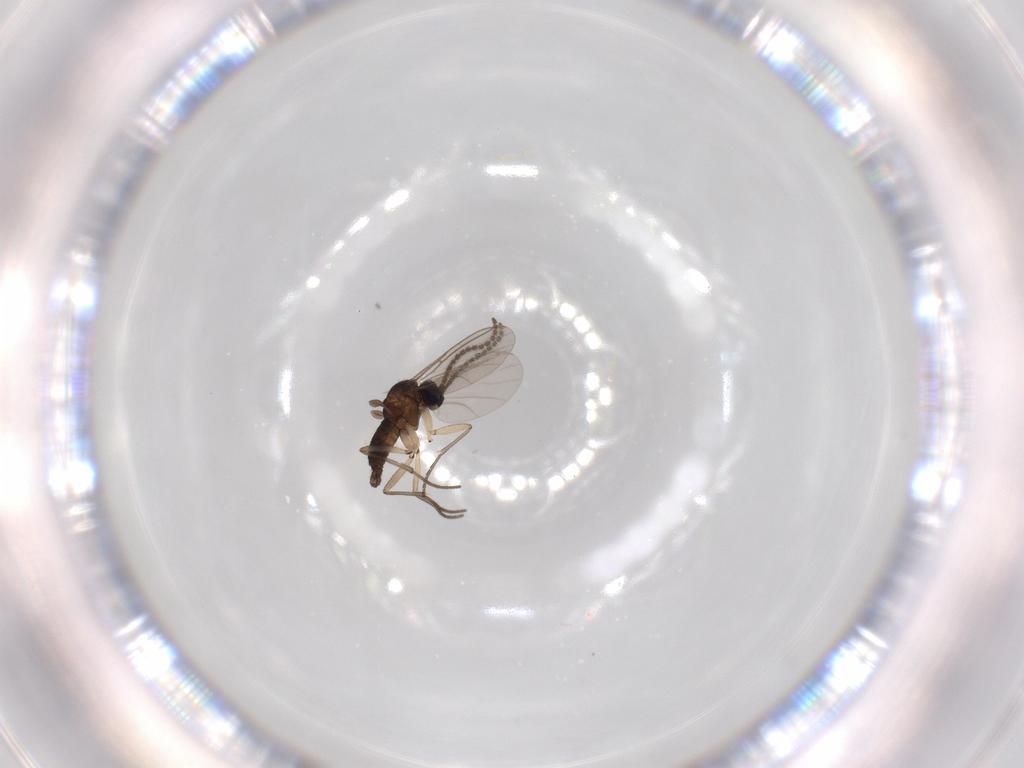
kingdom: Animalia
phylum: Arthropoda
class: Insecta
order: Diptera
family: Sciaridae
